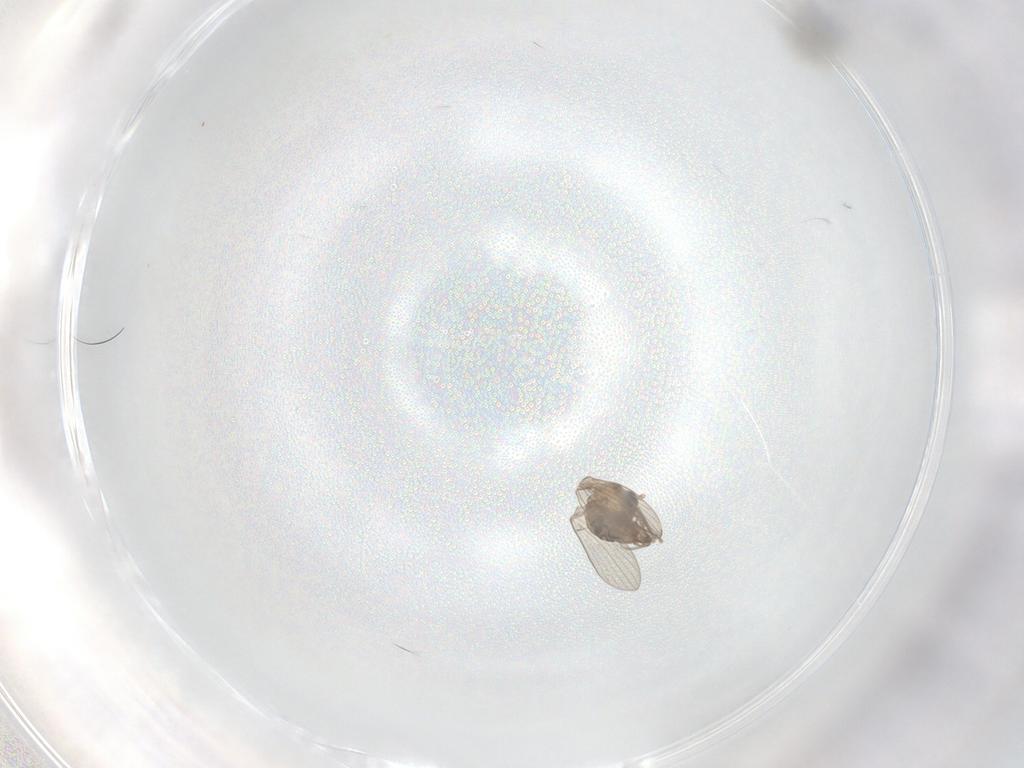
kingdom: Animalia
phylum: Arthropoda
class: Insecta
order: Diptera
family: Psychodidae
